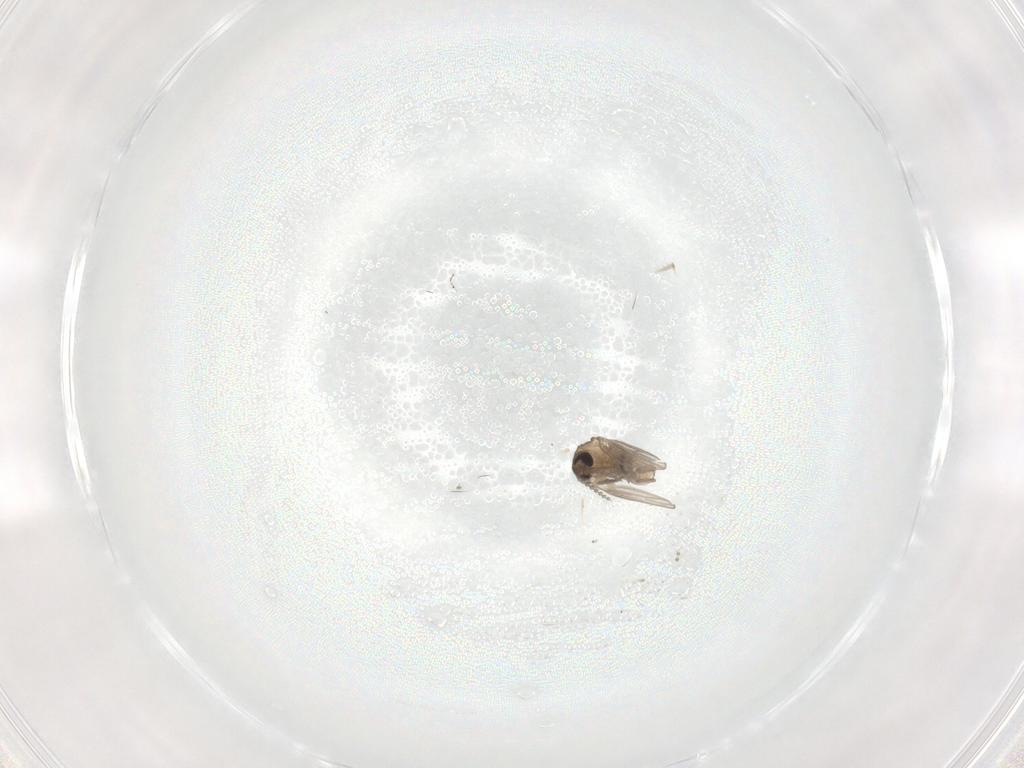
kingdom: Animalia
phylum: Arthropoda
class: Insecta
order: Diptera
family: Psychodidae
